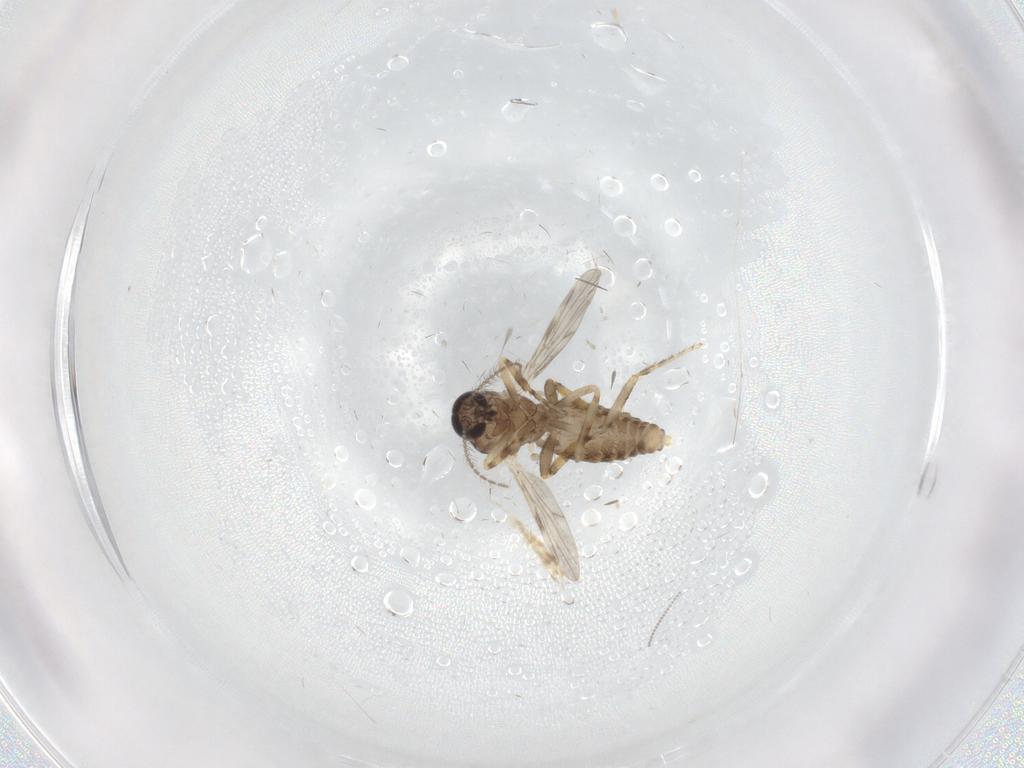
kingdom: Animalia
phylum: Arthropoda
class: Insecta
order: Diptera
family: Ceratopogonidae
